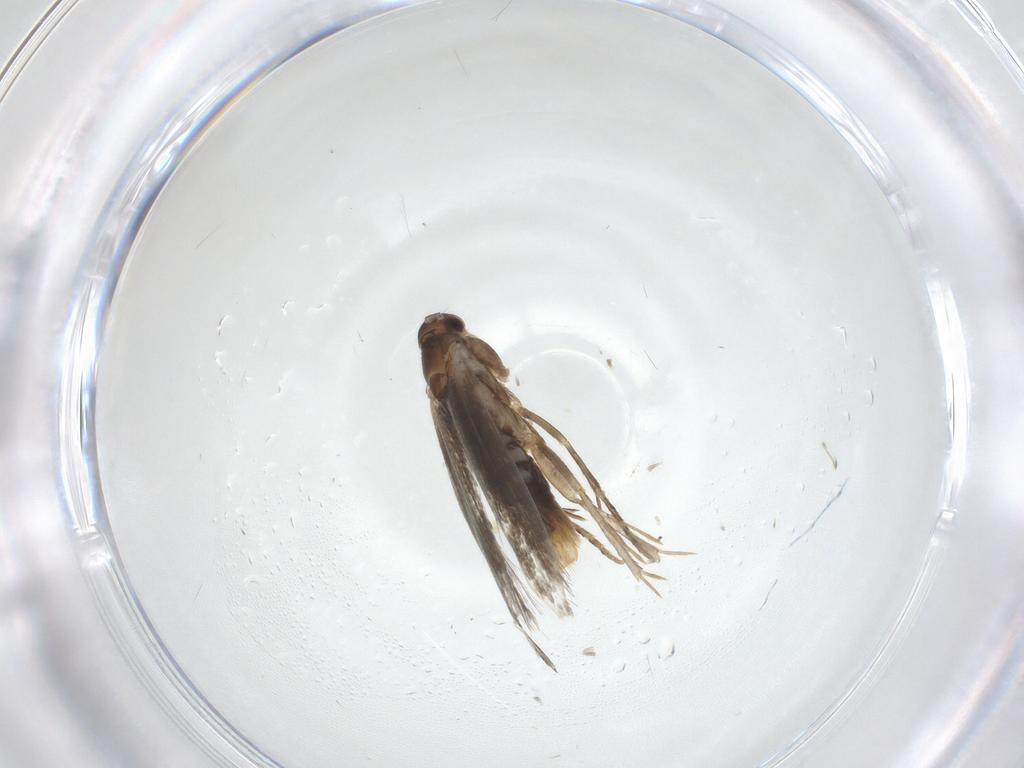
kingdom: Animalia
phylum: Arthropoda
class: Insecta
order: Lepidoptera
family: Elachistidae
